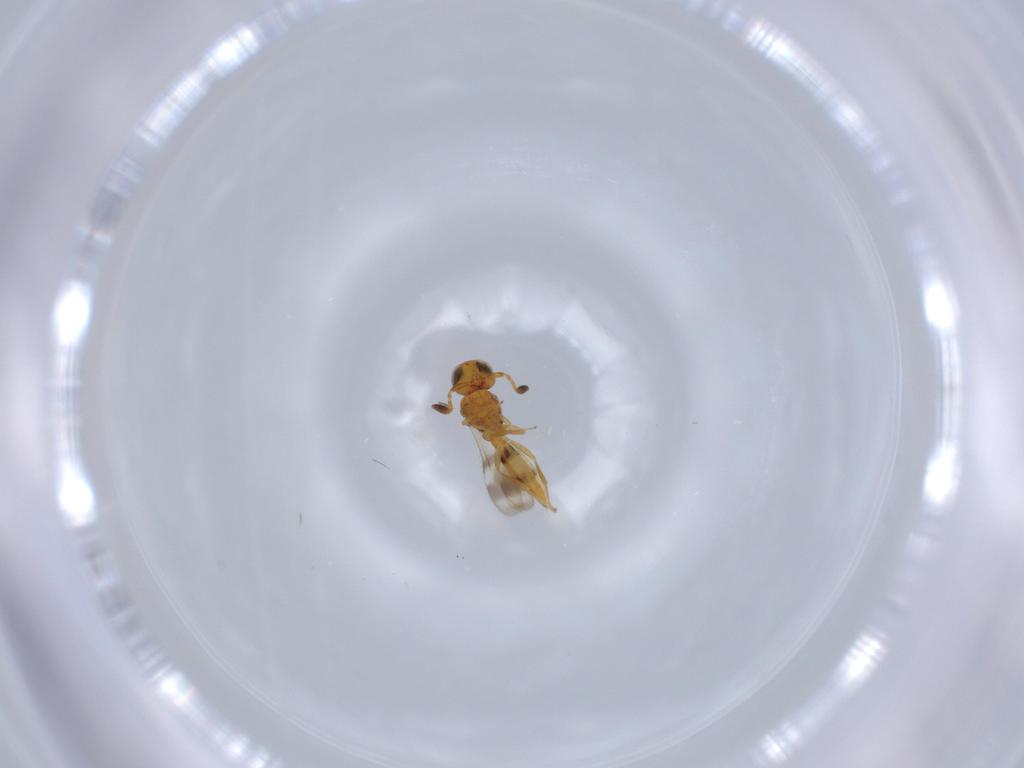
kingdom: Animalia
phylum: Arthropoda
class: Insecta
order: Hymenoptera
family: Scelionidae
